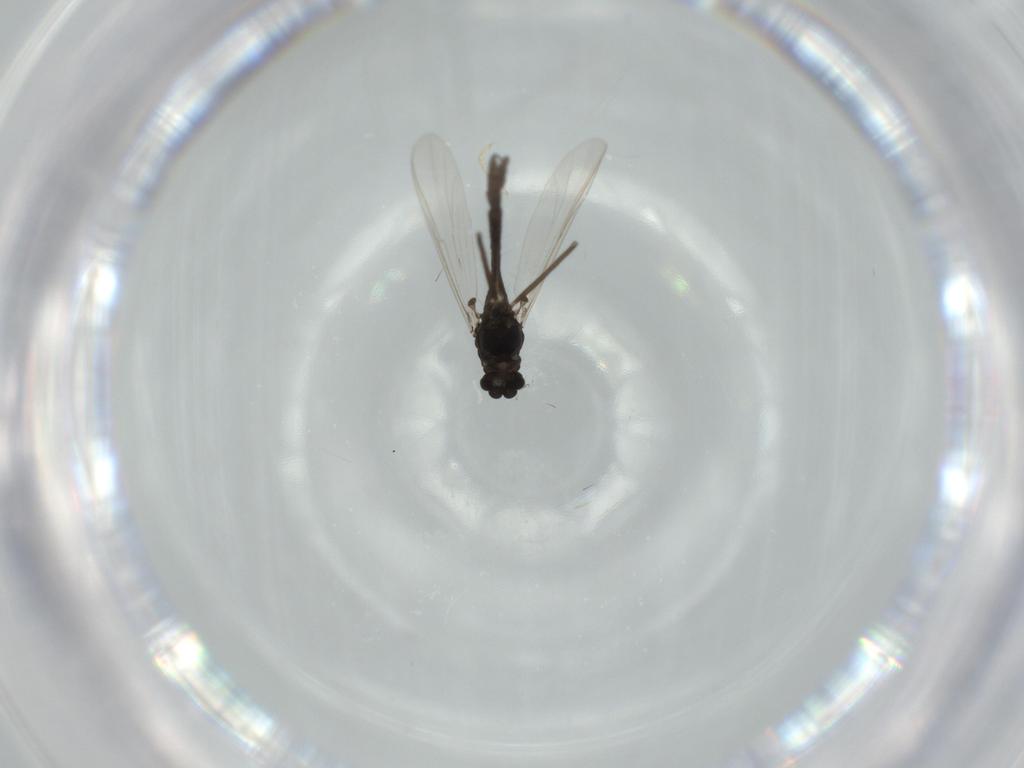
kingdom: Animalia
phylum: Arthropoda
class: Insecta
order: Diptera
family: Chironomidae
